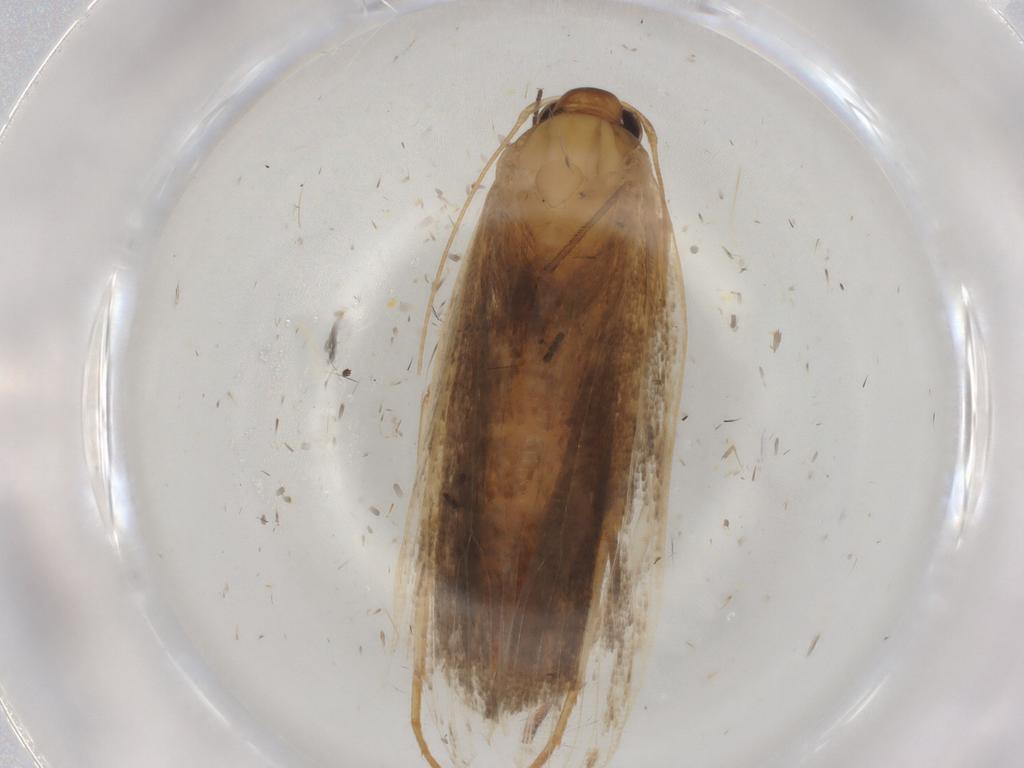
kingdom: Animalia
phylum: Arthropoda
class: Insecta
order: Lepidoptera
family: Gelechiidae
